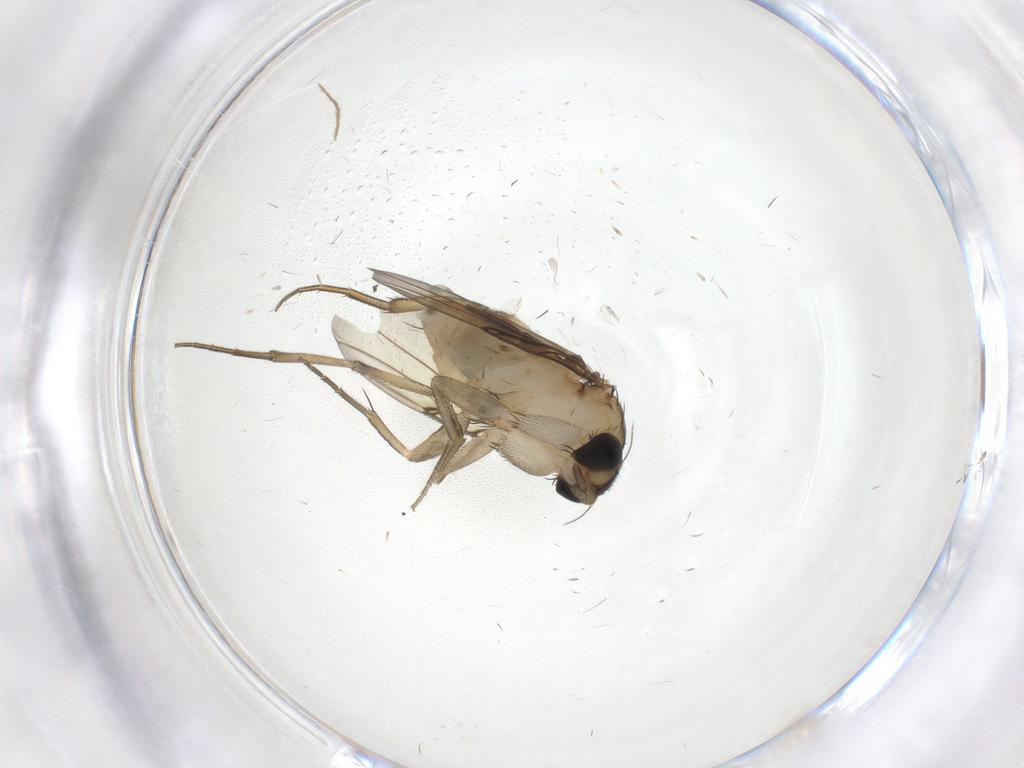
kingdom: Animalia
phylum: Arthropoda
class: Insecta
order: Diptera
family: Phoridae
